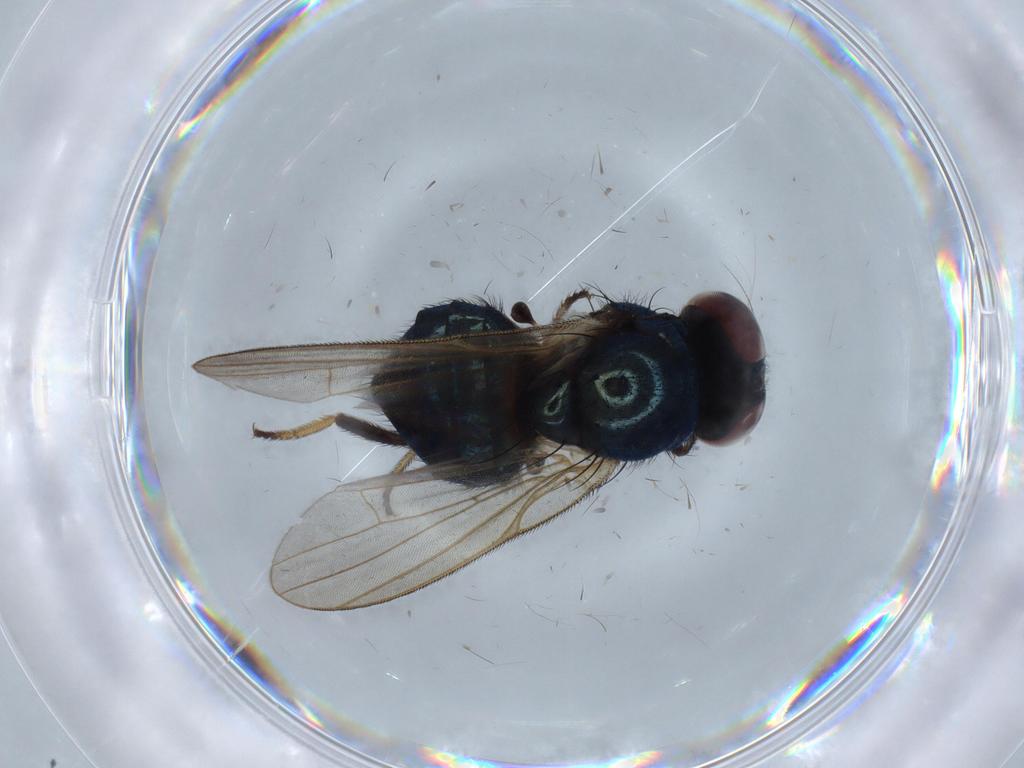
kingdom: Animalia
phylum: Arthropoda
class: Insecta
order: Diptera
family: Lonchaeidae
